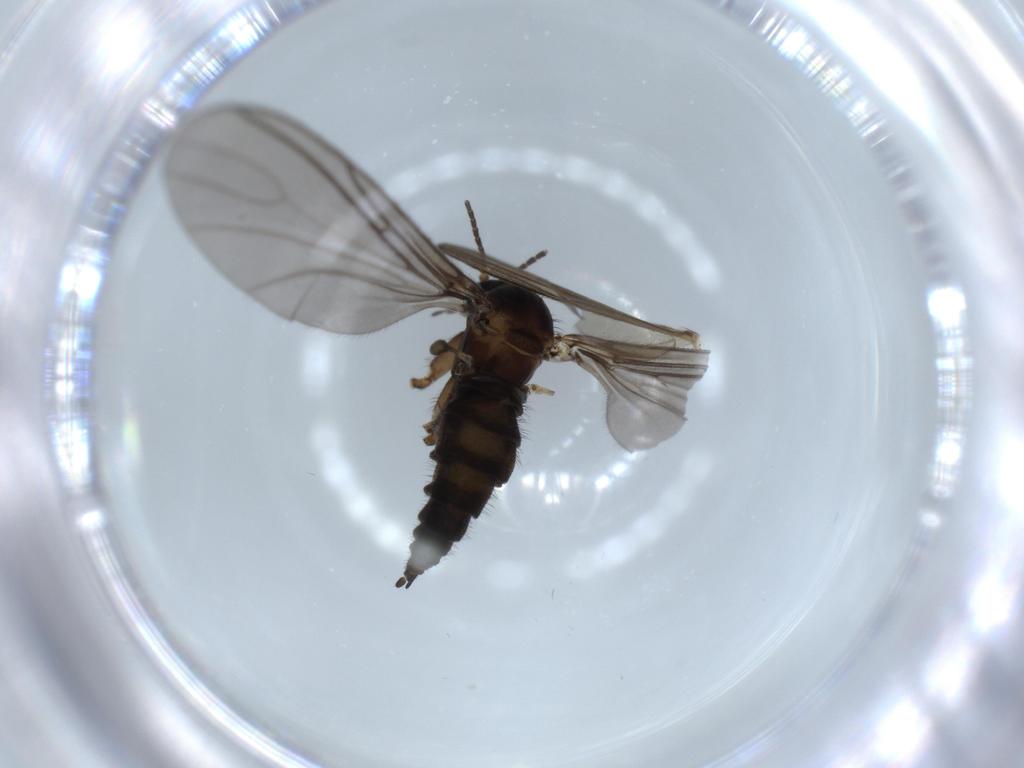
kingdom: Animalia
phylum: Arthropoda
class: Insecta
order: Diptera
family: Sciaridae
